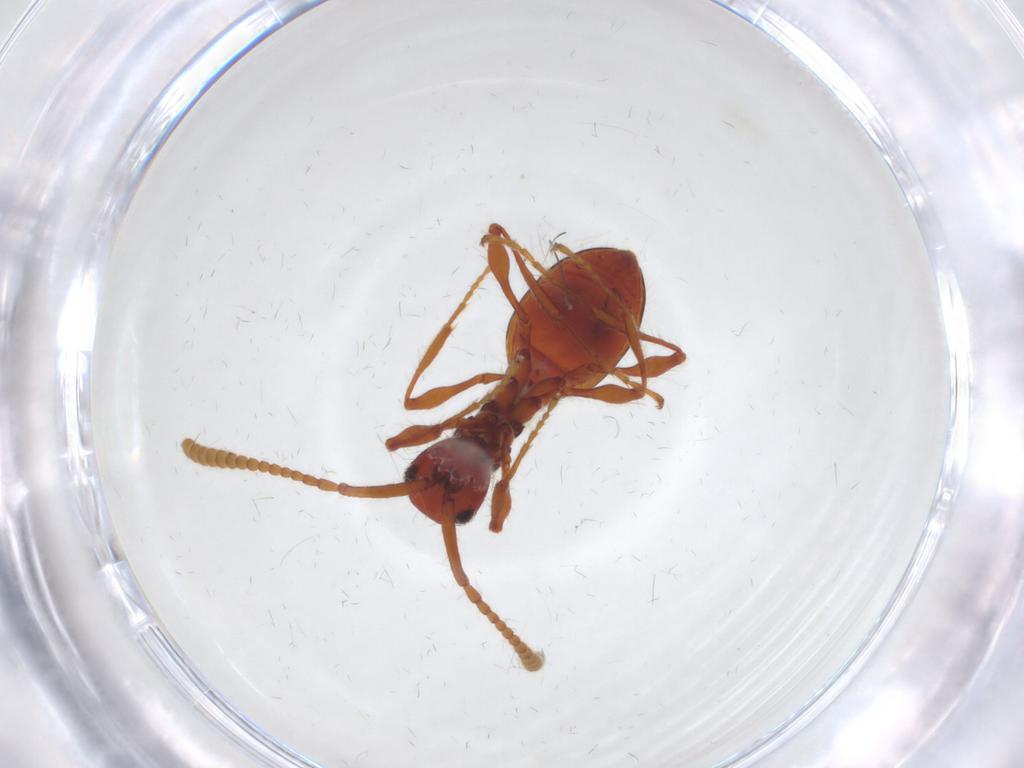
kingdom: Animalia
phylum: Arthropoda
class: Insecta
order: Hymenoptera
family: Diapriidae
